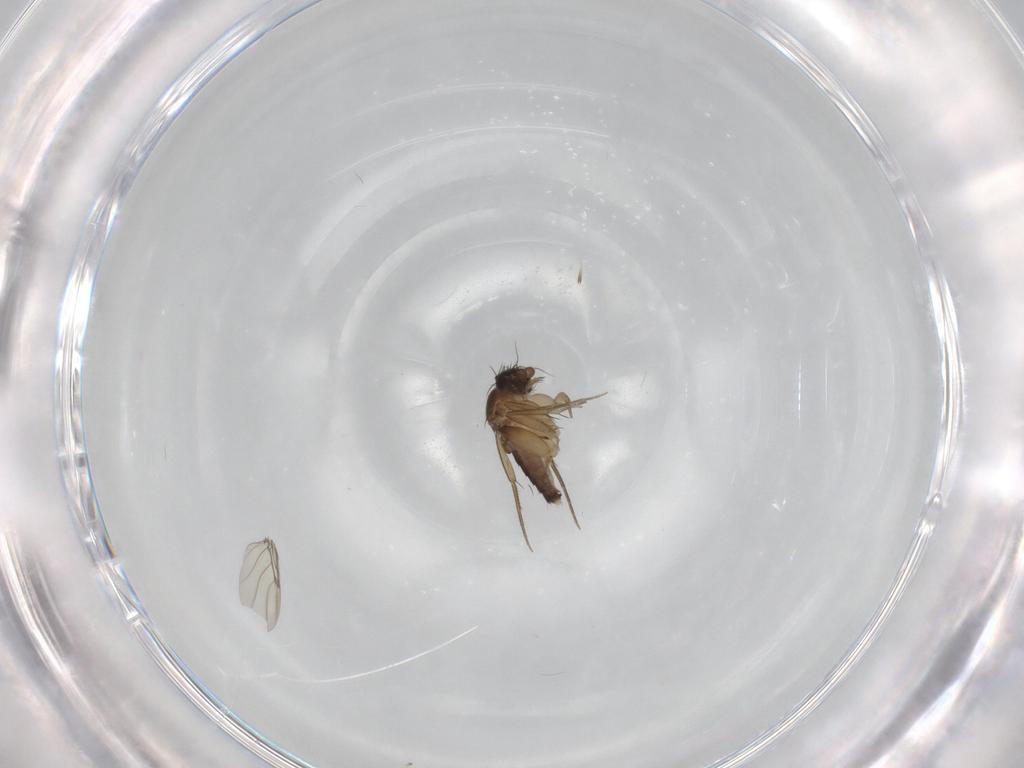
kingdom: Animalia
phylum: Arthropoda
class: Insecta
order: Diptera
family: Phoridae
